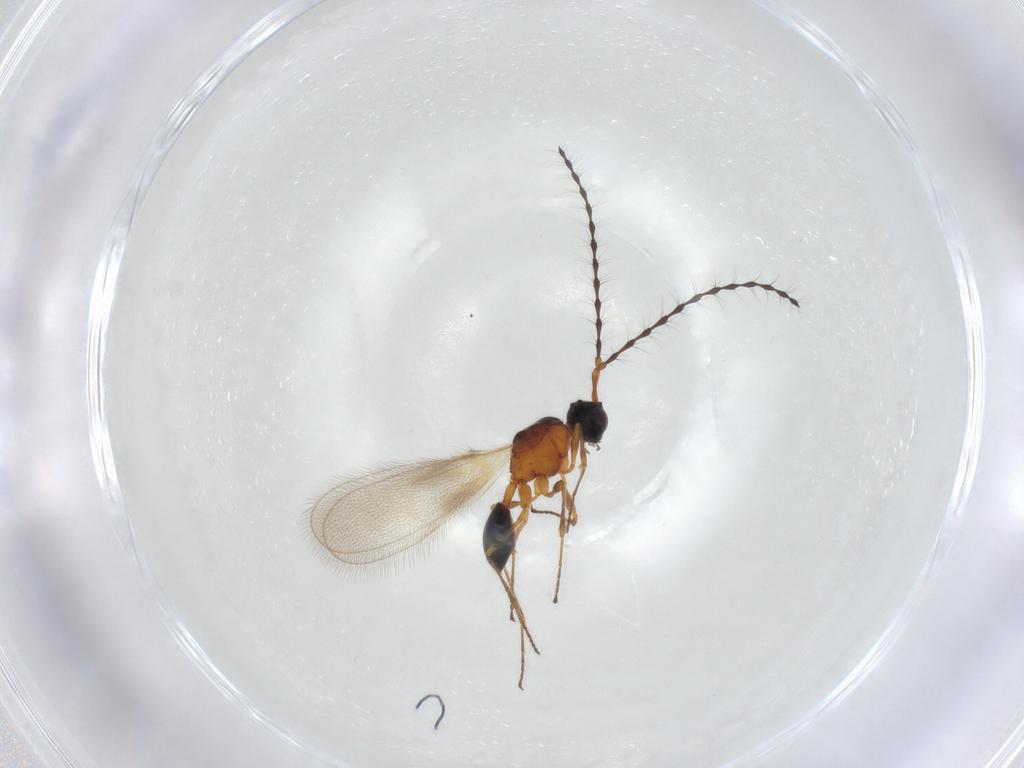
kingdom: Animalia
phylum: Arthropoda
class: Insecta
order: Hymenoptera
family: Diapriidae
